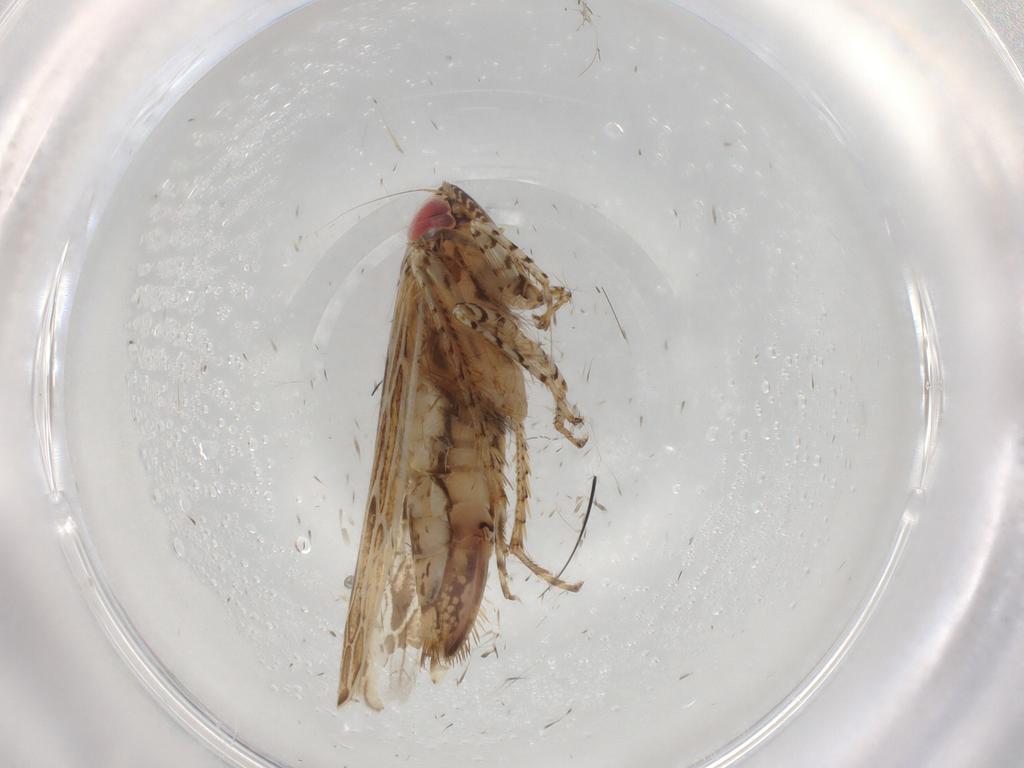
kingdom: Animalia
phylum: Arthropoda
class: Insecta
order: Hemiptera
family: Cicadellidae
